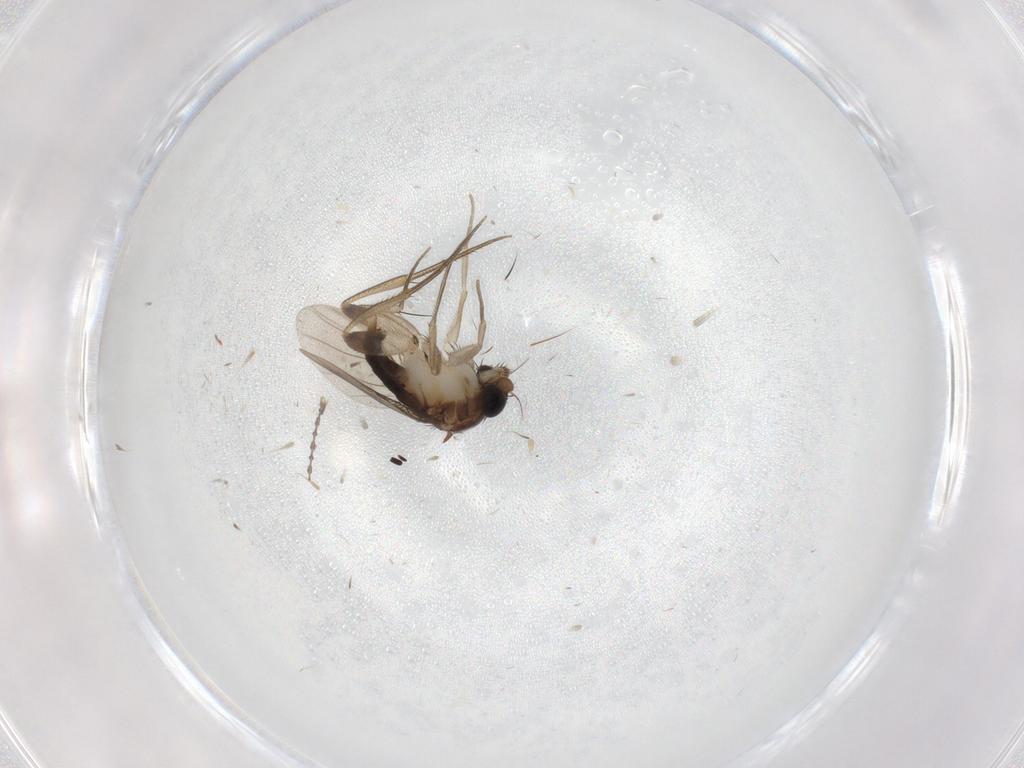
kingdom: Animalia
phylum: Arthropoda
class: Insecta
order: Diptera
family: Phoridae
